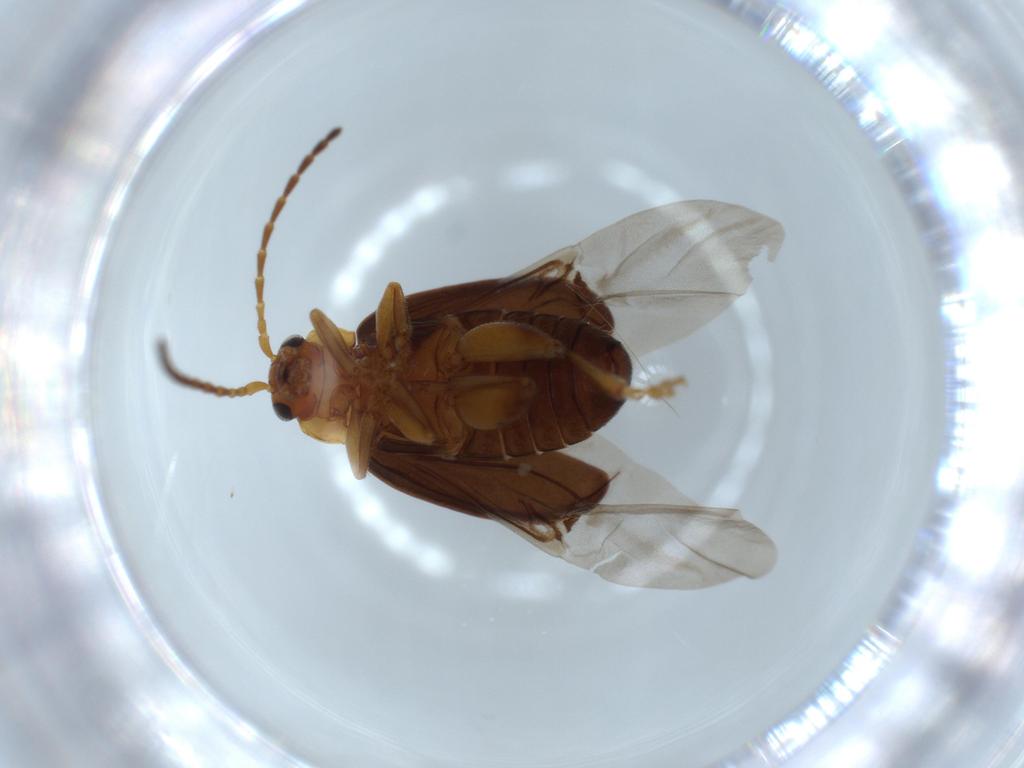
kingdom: Animalia
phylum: Arthropoda
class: Insecta
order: Coleoptera
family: Chrysomelidae
